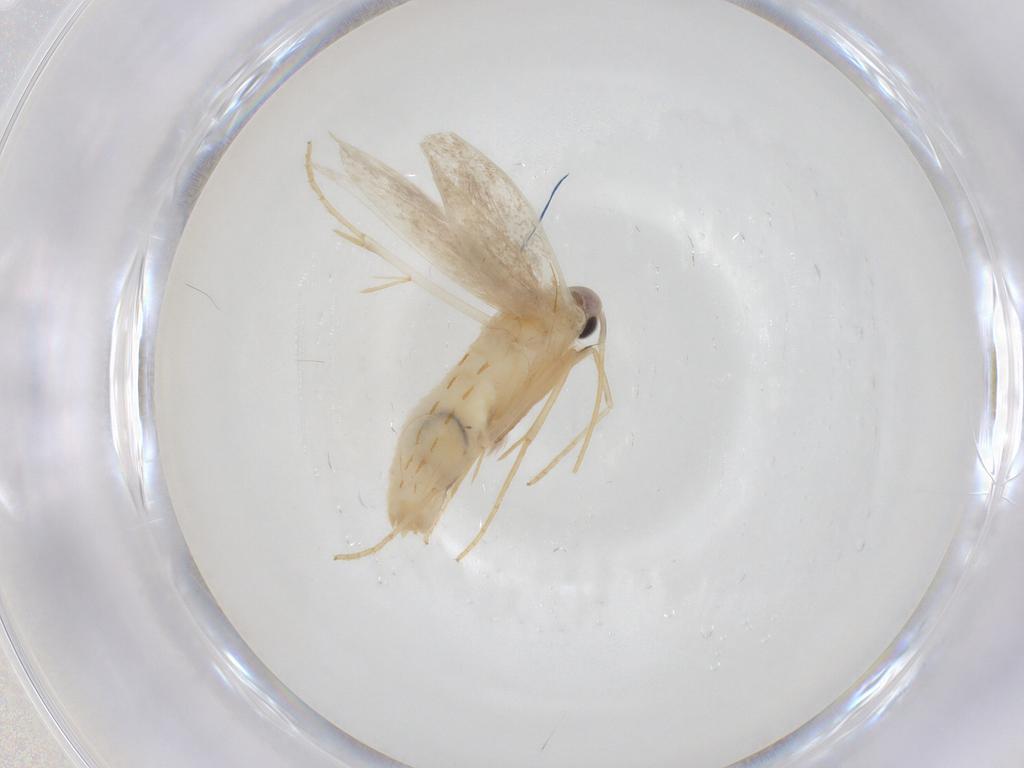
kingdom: Animalia
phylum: Arthropoda
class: Insecta
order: Lepidoptera
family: Coleophoridae
